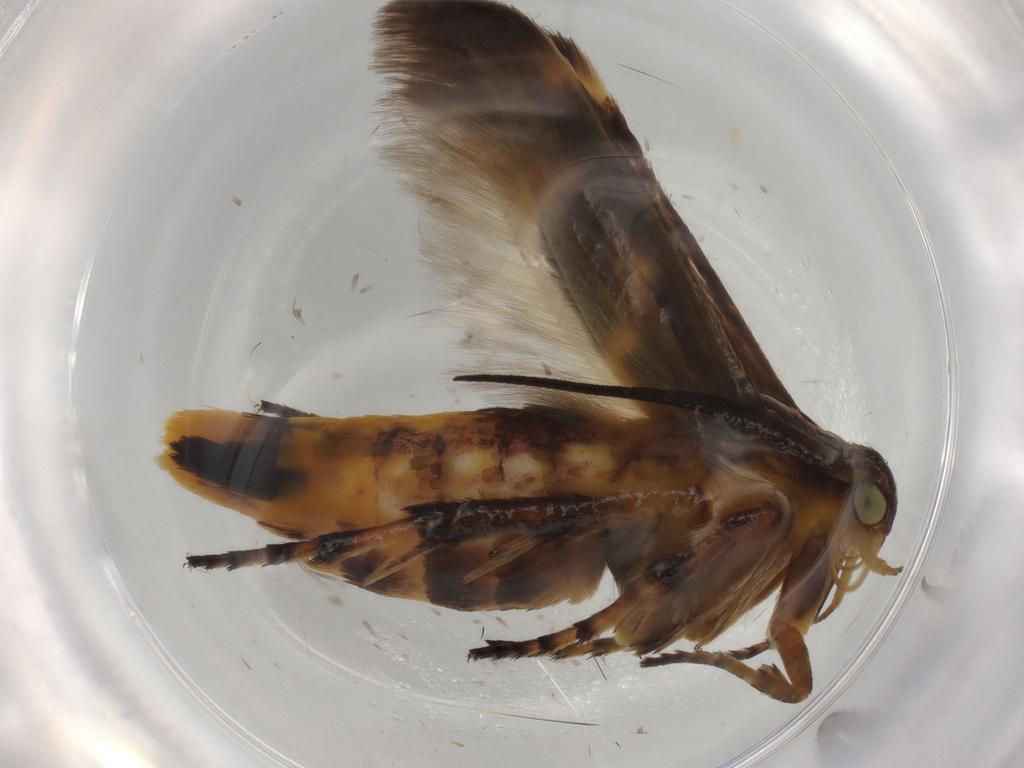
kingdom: Animalia
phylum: Arthropoda
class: Insecta
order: Lepidoptera
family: Scythrididae
